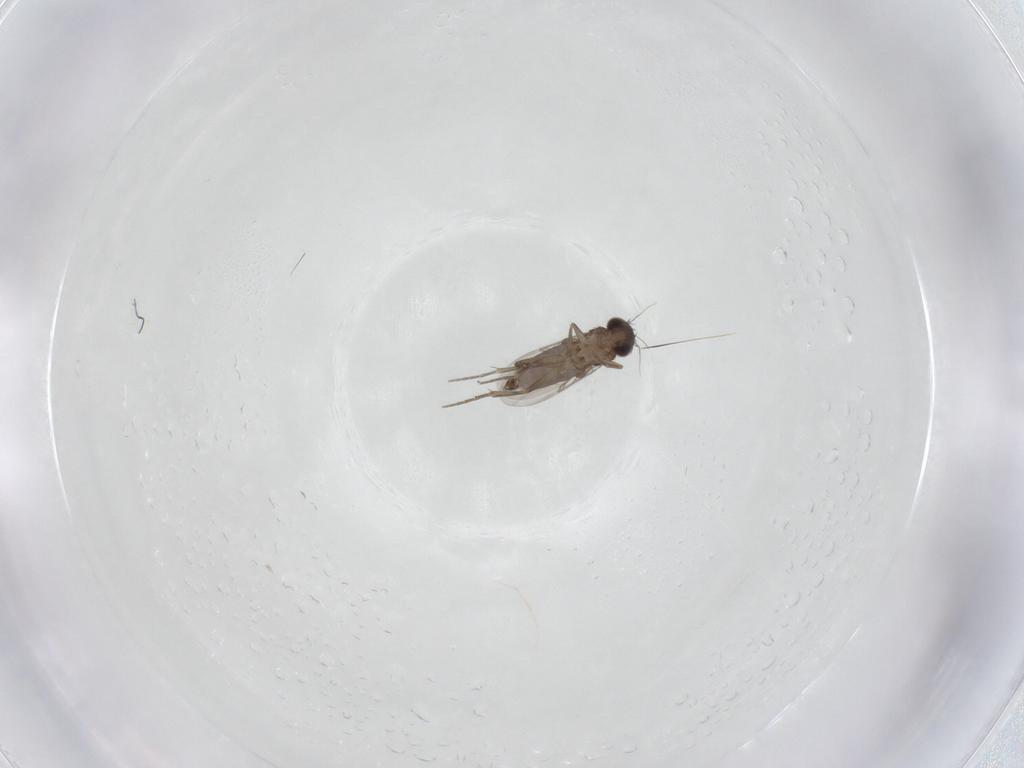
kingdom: Animalia
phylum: Arthropoda
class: Insecta
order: Diptera
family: Phoridae
